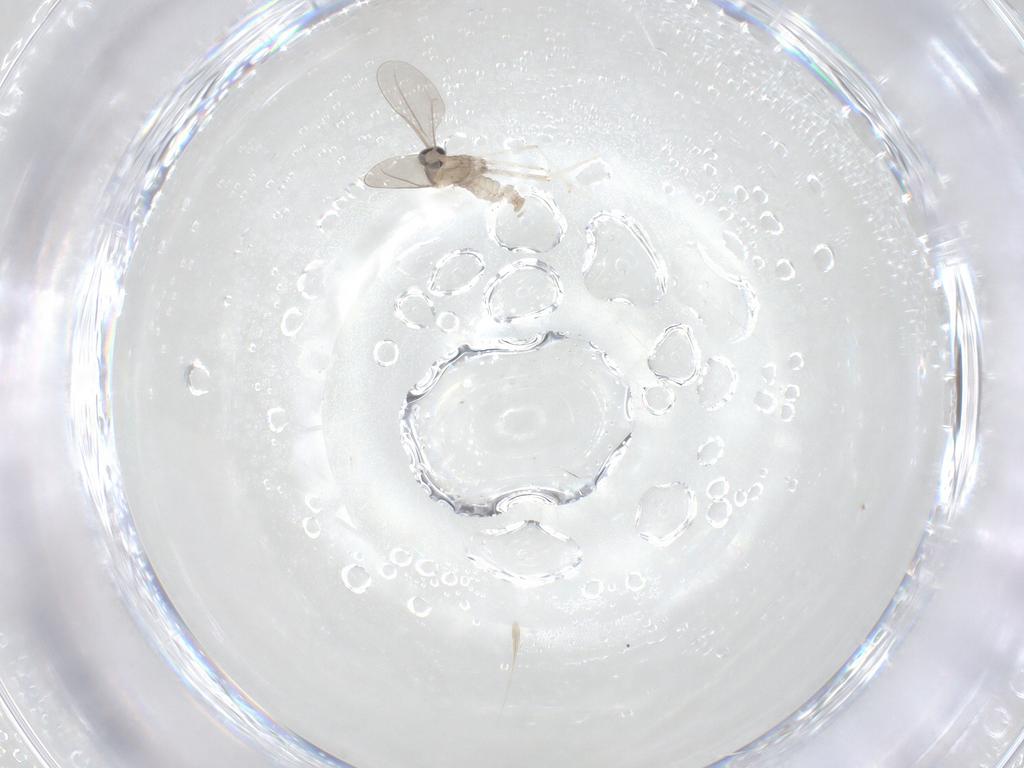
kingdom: Animalia
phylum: Arthropoda
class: Insecta
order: Diptera
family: Cecidomyiidae
